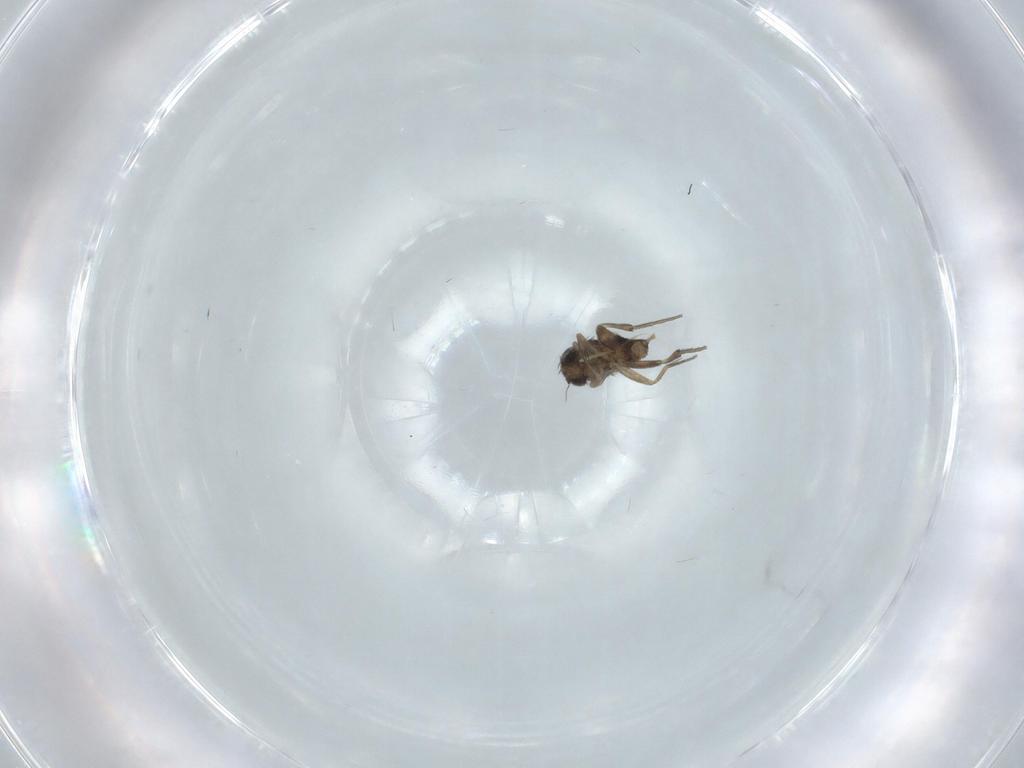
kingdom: Animalia
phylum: Arthropoda
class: Insecta
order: Diptera
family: Phoridae
